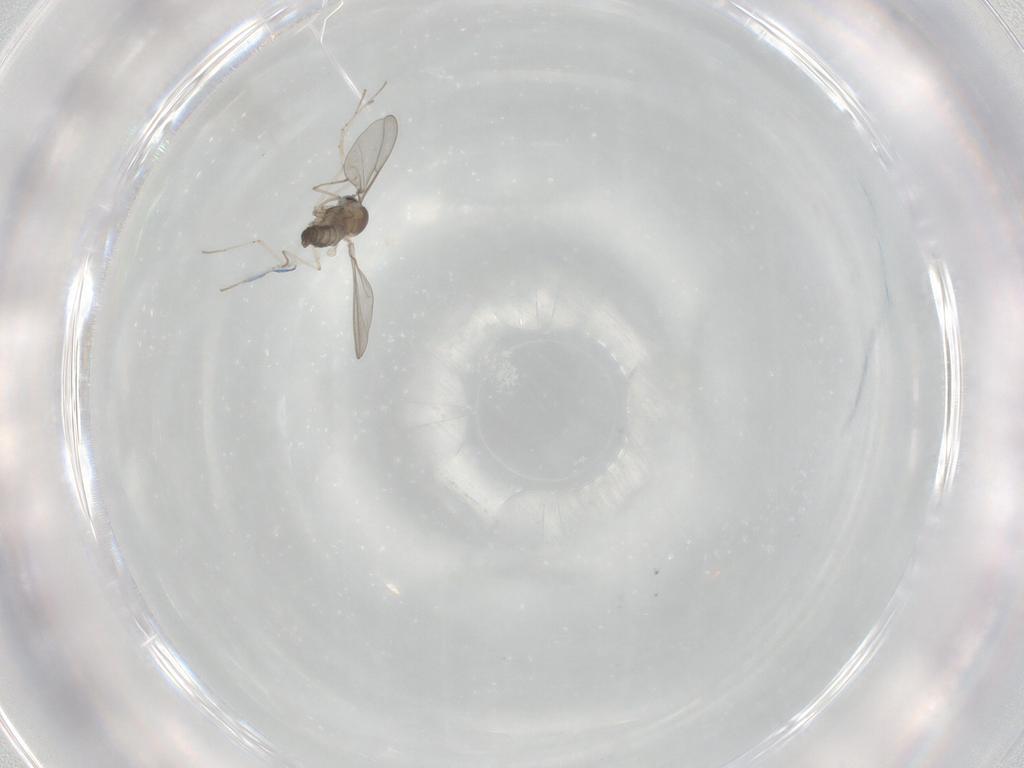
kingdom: Animalia
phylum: Arthropoda
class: Insecta
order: Diptera
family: Cecidomyiidae
